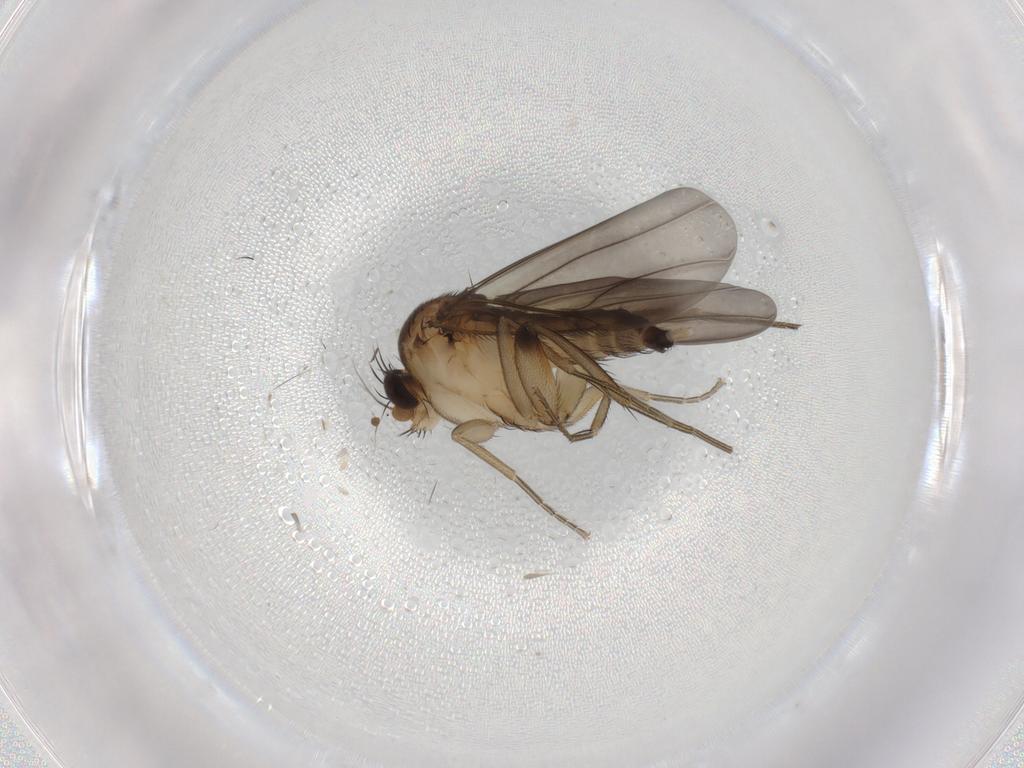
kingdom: Animalia
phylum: Arthropoda
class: Insecta
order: Diptera
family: Phoridae
